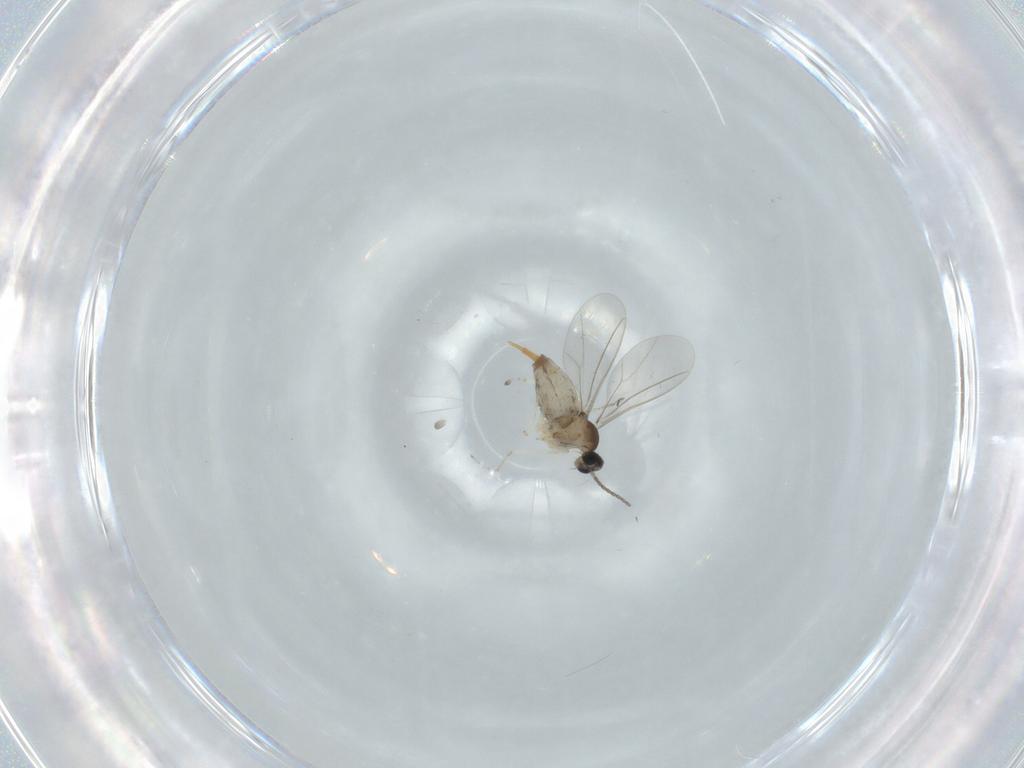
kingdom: Animalia
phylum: Arthropoda
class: Insecta
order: Diptera
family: Cecidomyiidae
